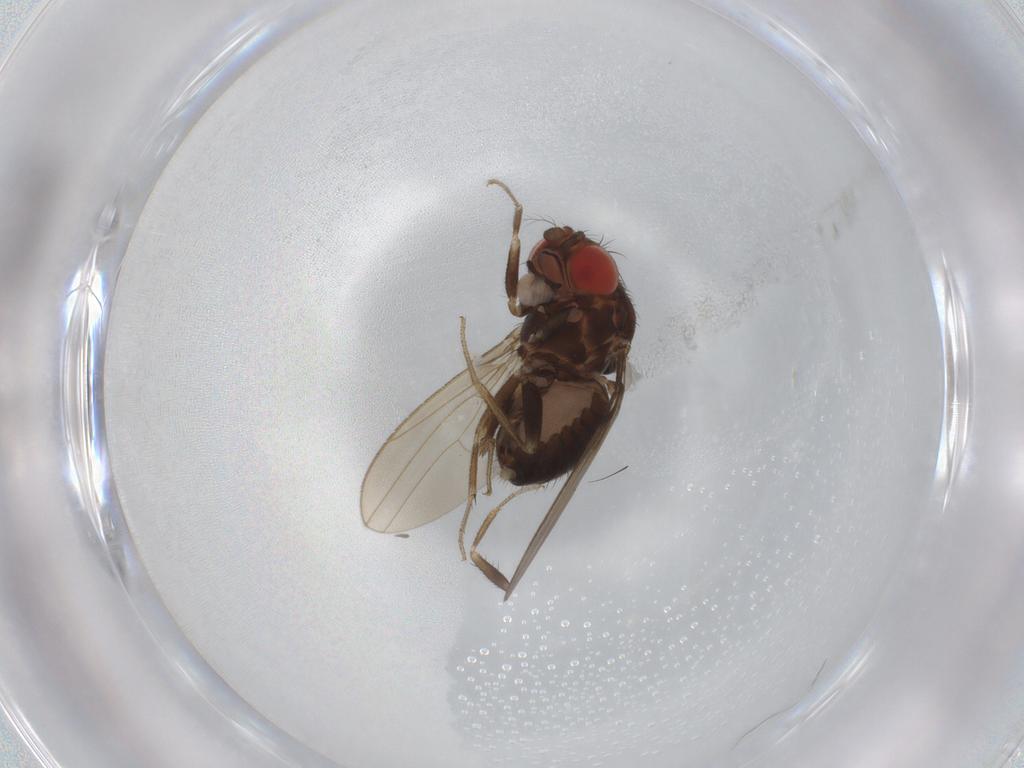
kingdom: Animalia
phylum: Arthropoda
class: Insecta
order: Diptera
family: Drosophilidae
